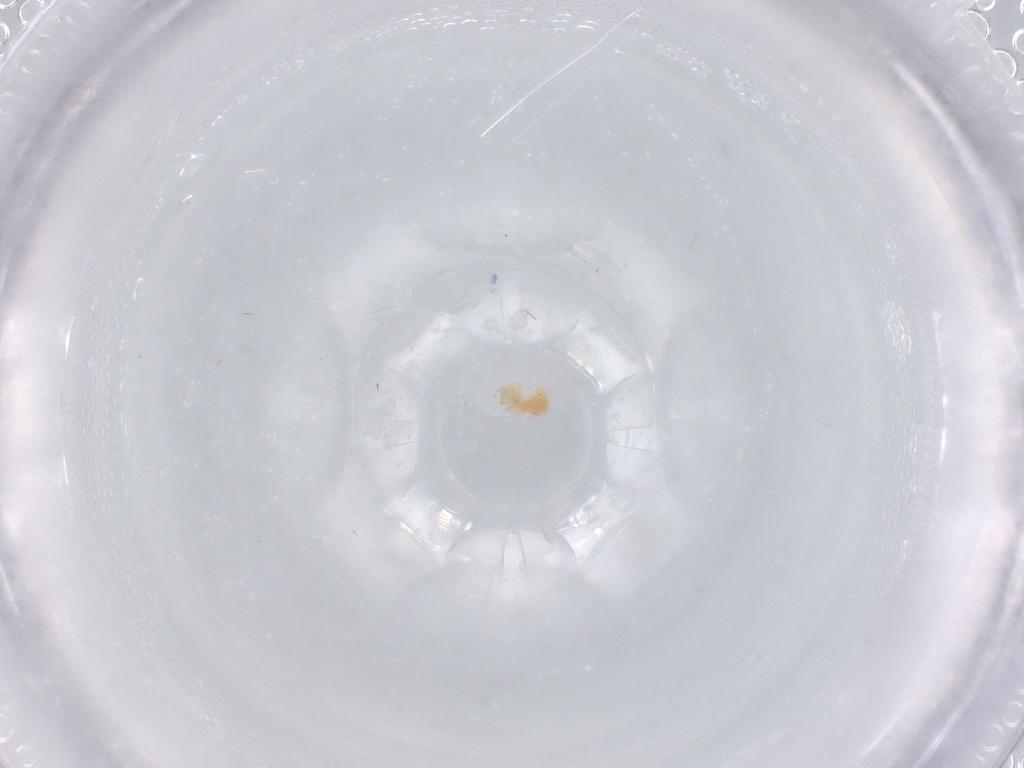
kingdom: Animalia
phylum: Arthropoda
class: Arachnida
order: Trombidiformes
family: Microtrombidiidae
